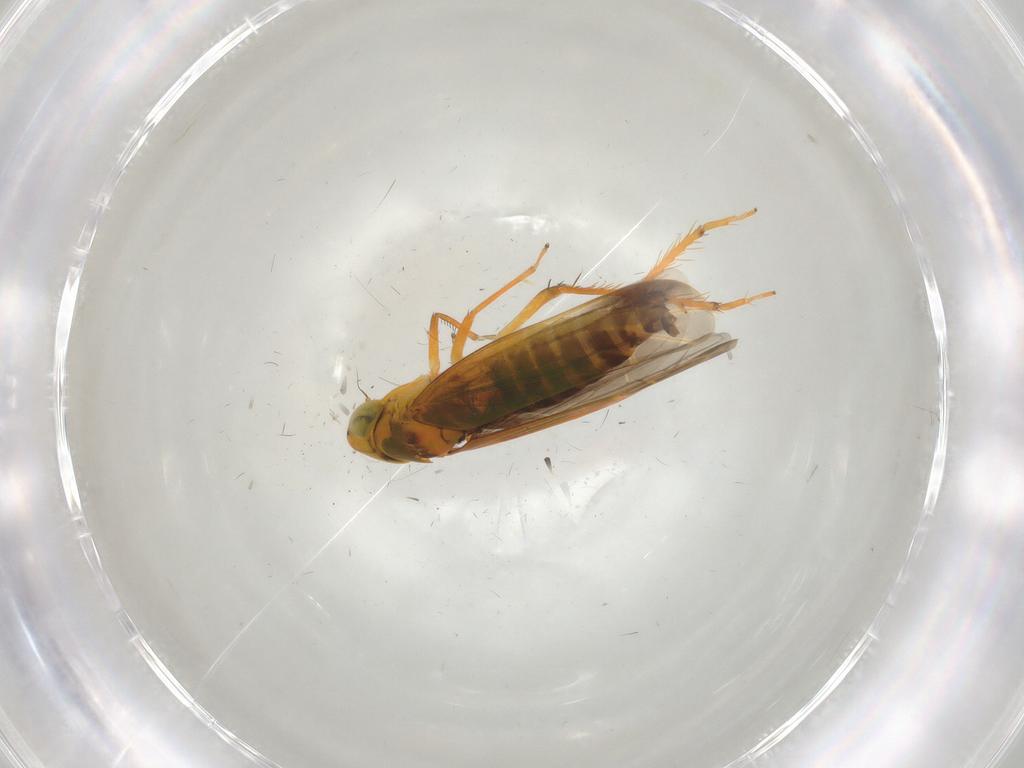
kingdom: Animalia
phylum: Arthropoda
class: Insecta
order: Hemiptera
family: Cicadellidae
